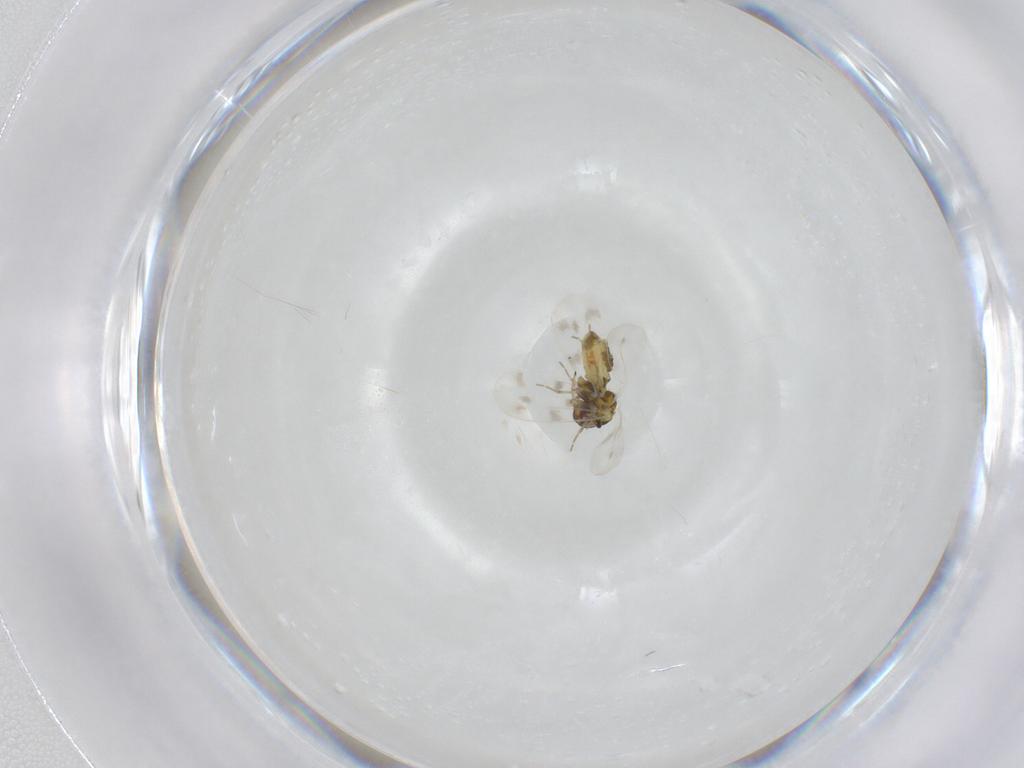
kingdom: Animalia
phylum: Arthropoda
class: Insecta
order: Hemiptera
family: Aleyrodidae
